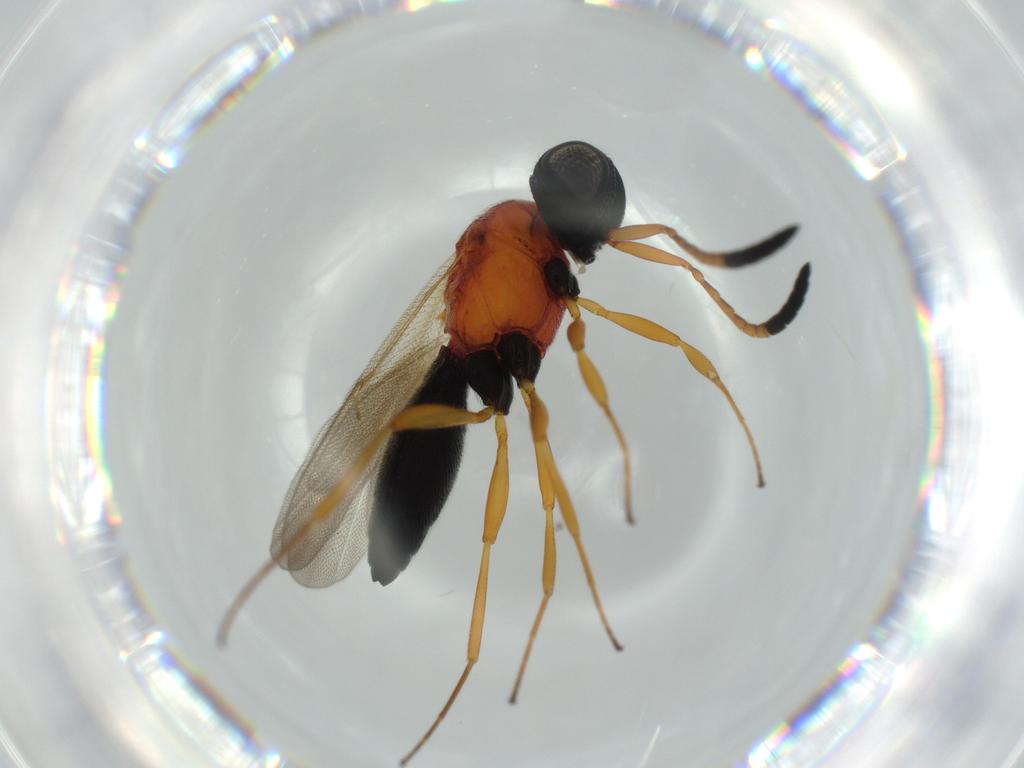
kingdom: Animalia
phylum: Arthropoda
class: Insecta
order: Hymenoptera
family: Scelionidae
